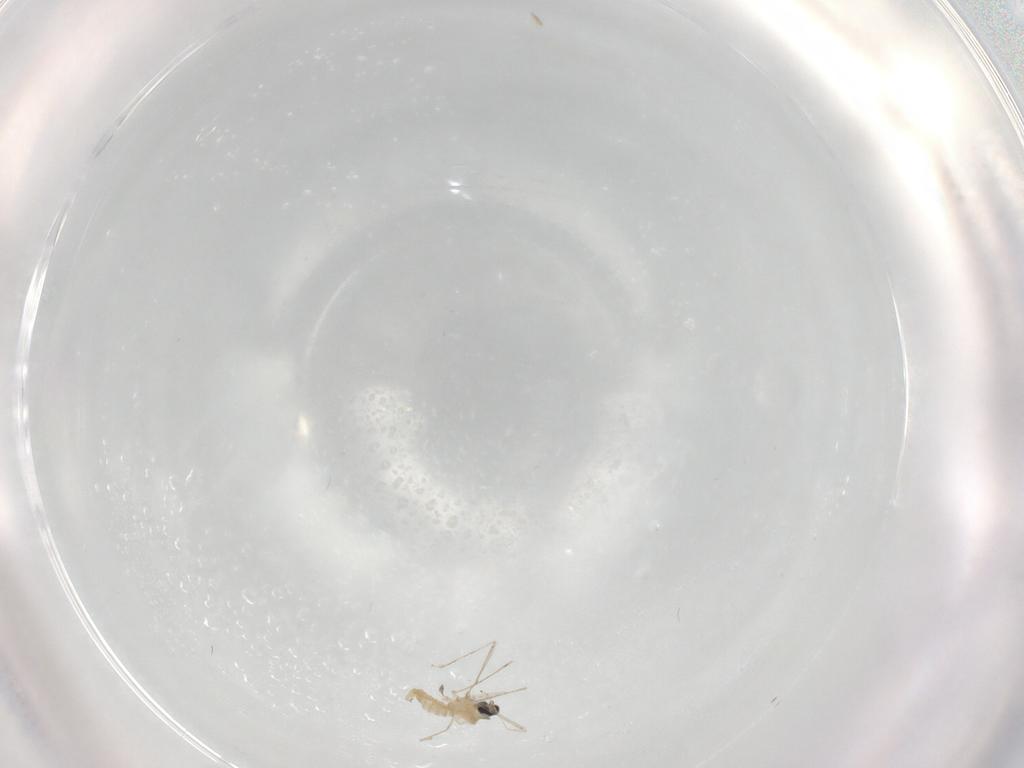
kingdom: Animalia
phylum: Arthropoda
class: Insecta
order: Diptera
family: Cecidomyiidae
